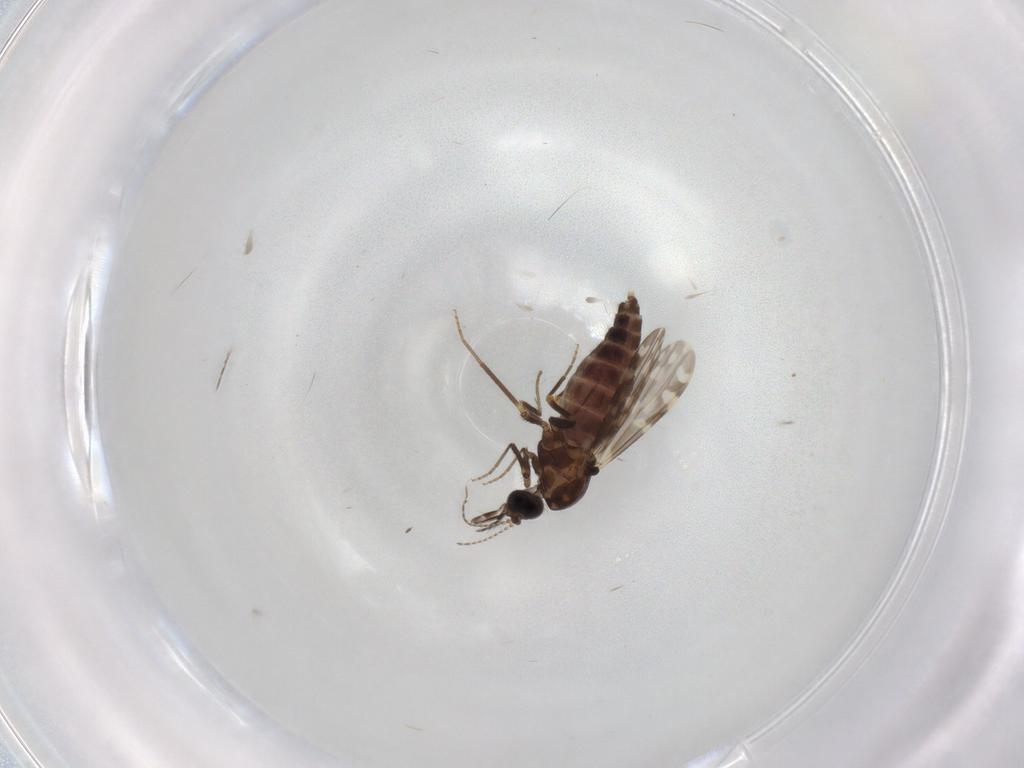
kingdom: Animalia
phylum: Arthropoda
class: Insecta
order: Diptera
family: Ceratopogonidae
